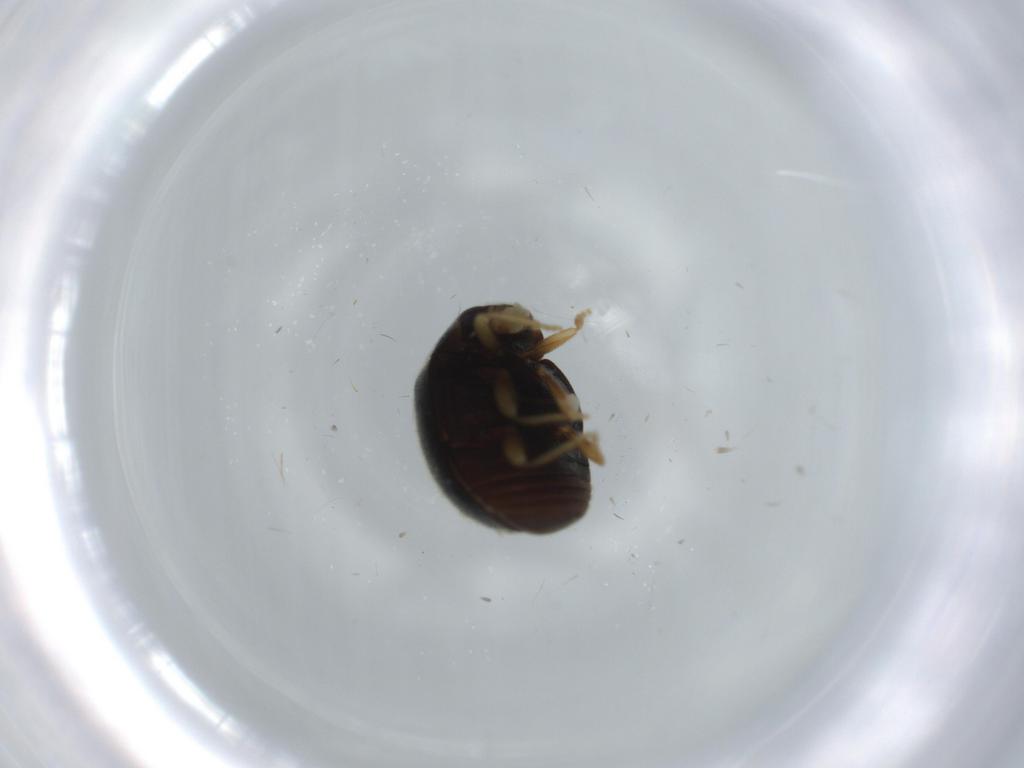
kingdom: Animalia
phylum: Arthropoda
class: Insecta
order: Coleoptera
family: Coccinellidae
